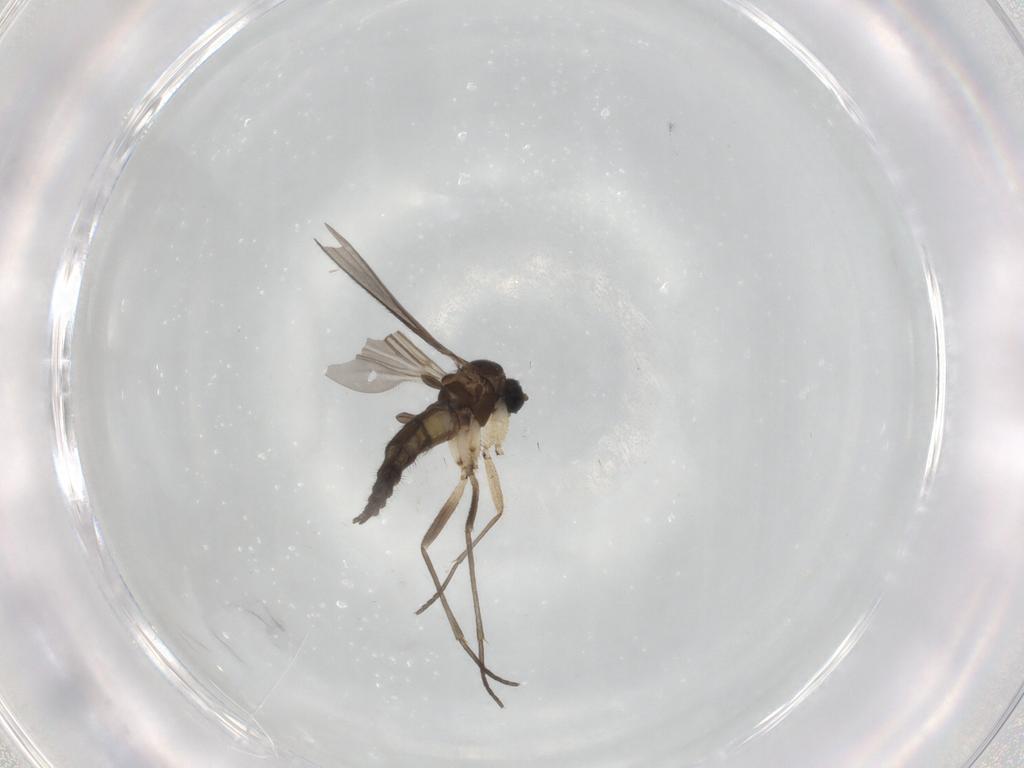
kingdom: Animalia
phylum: Arthropoda
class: Insecta
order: Diptera
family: Sciaridae
